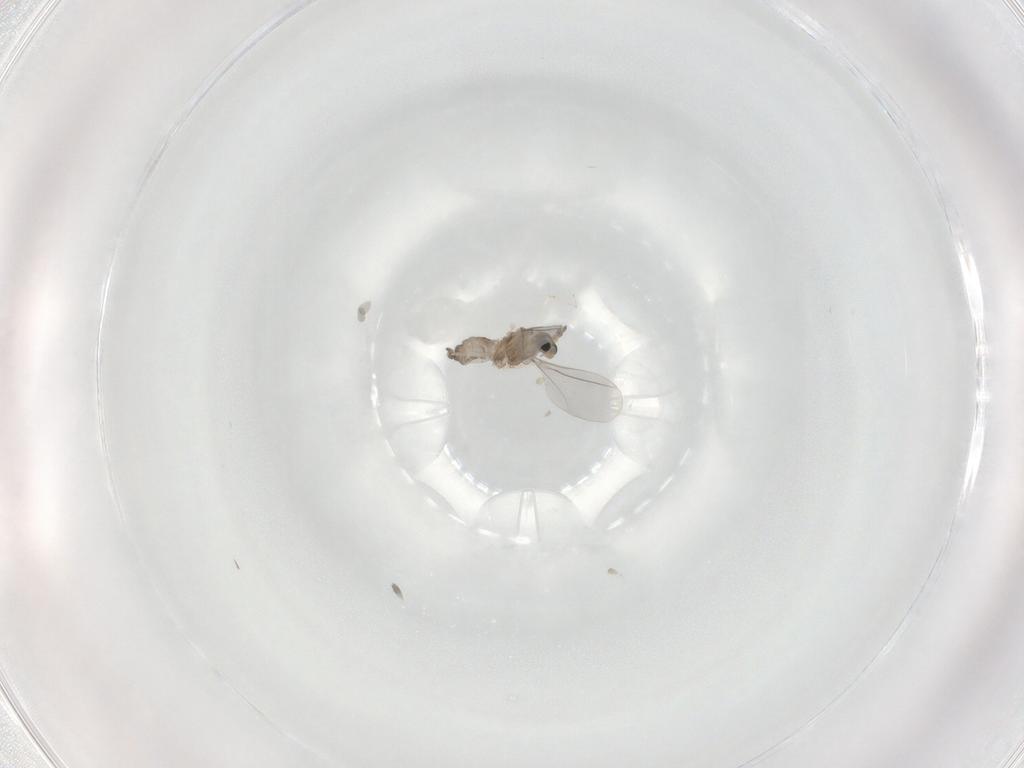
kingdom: Animalia
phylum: Arthropoda
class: Insecta
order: Diptera
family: Cecidomyiidae
